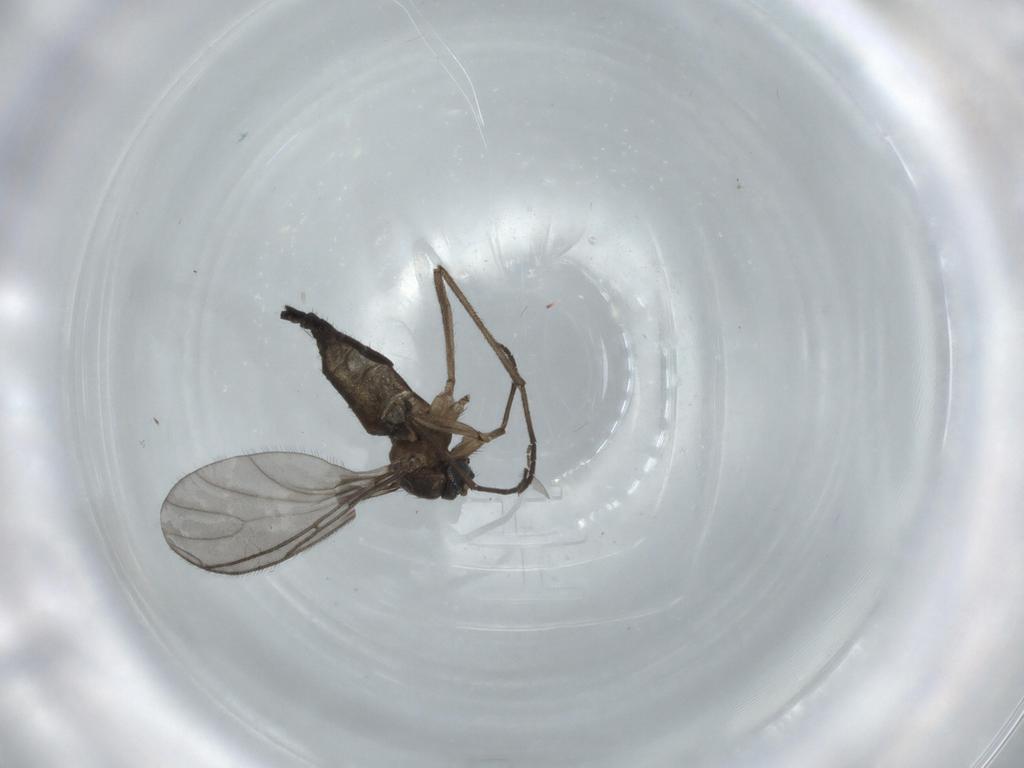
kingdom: Animalia
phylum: Arthropoda
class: Insecta
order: Diptera
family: Sciaridae
